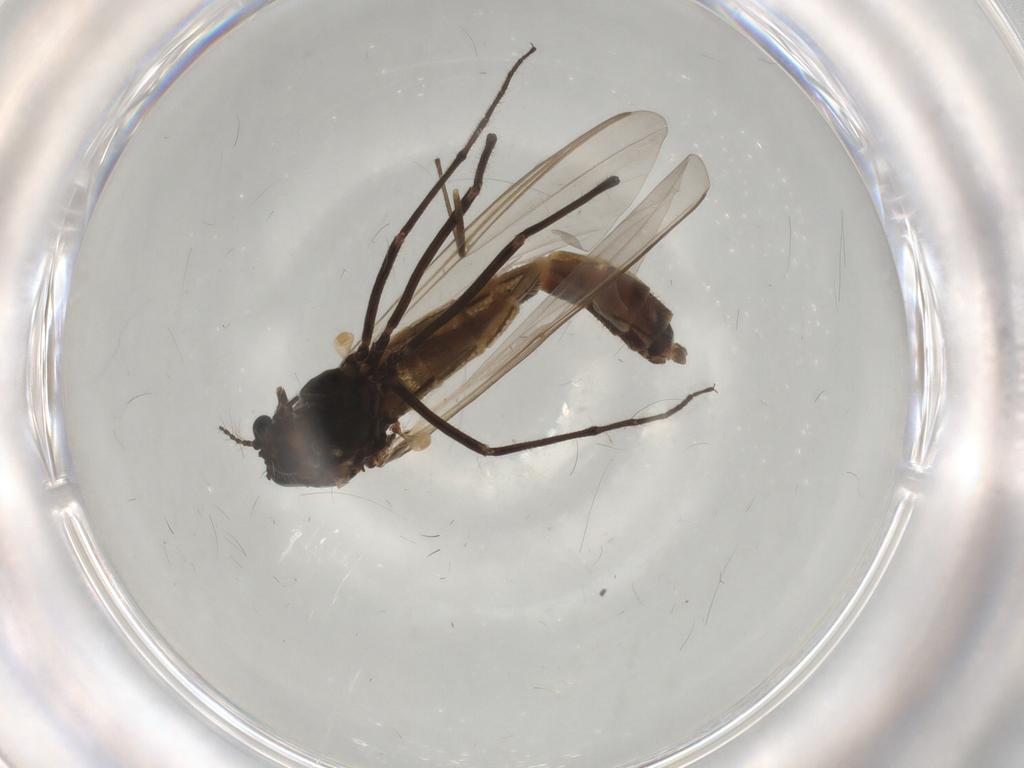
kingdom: Animalia
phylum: Arthropoda
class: Insecta
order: Diptera
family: Chironomidae
